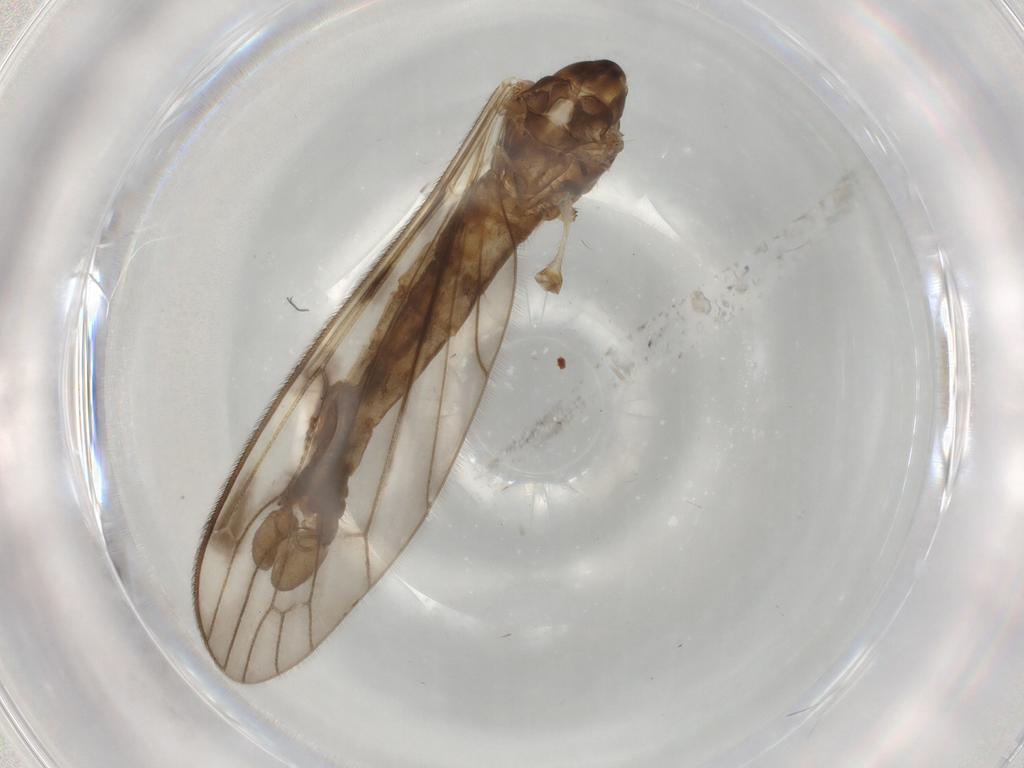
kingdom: Animalia
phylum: Arthropoda
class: Insecta
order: Diptera
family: Limoniidae
